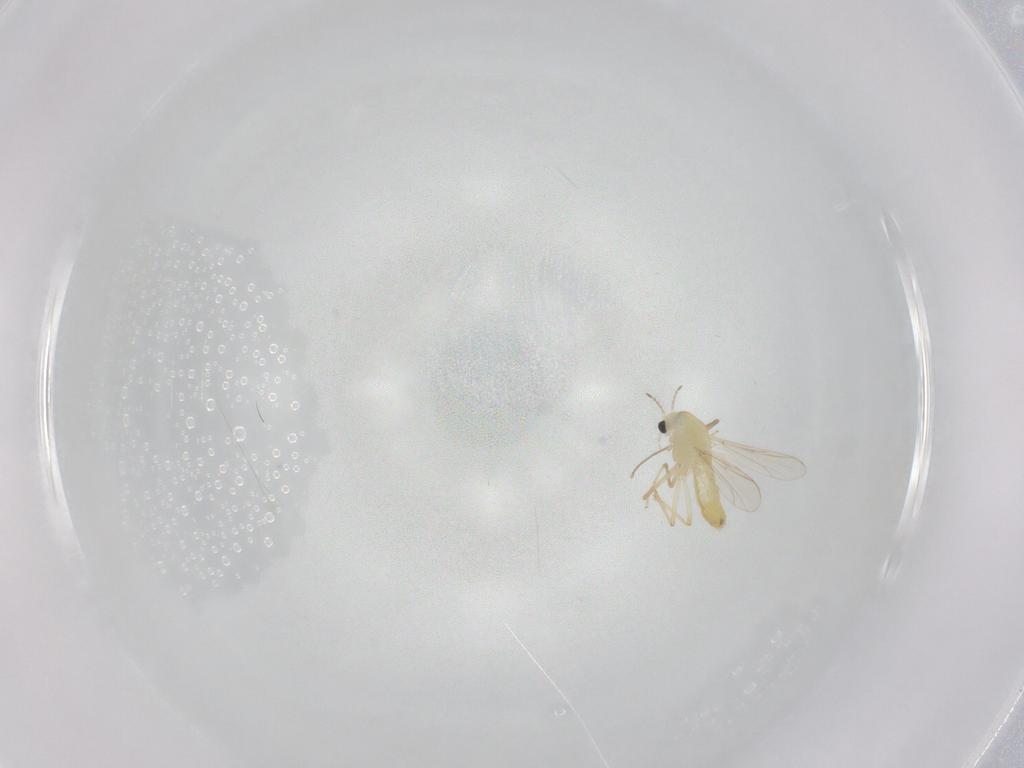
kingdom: Animalia
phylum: Arthropoda
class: Insecta
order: Diptera
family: Chironomidae
